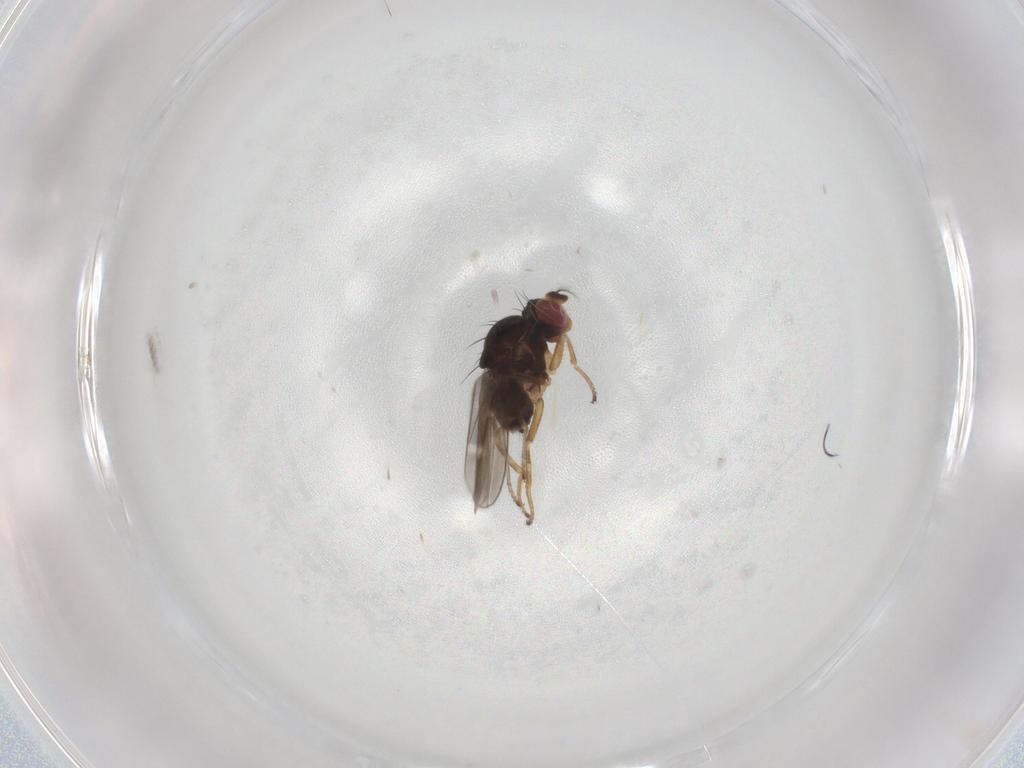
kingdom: Animalia
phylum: Arthropoda
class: Insecta
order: Diptera
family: Ephydridae
